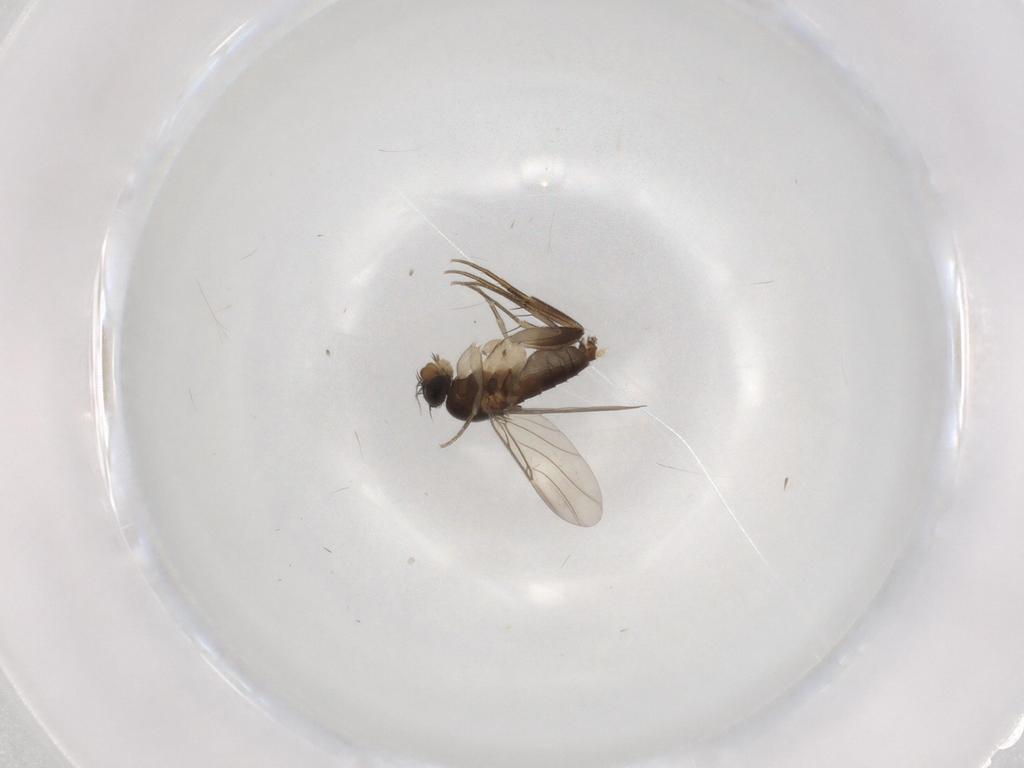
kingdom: Animalia
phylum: Arthropoda
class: Insecta
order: Diptera
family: Phoridae
